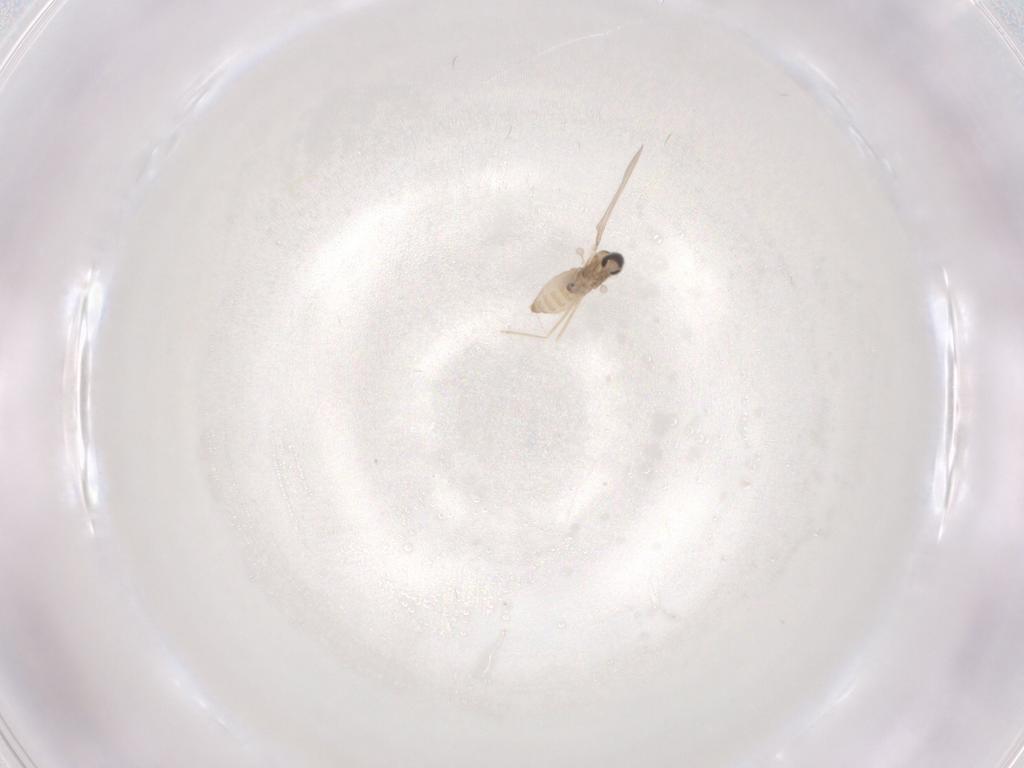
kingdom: Animalia
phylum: Arthropoda
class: Insecta
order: Diptera
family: Cecidomyiidae
